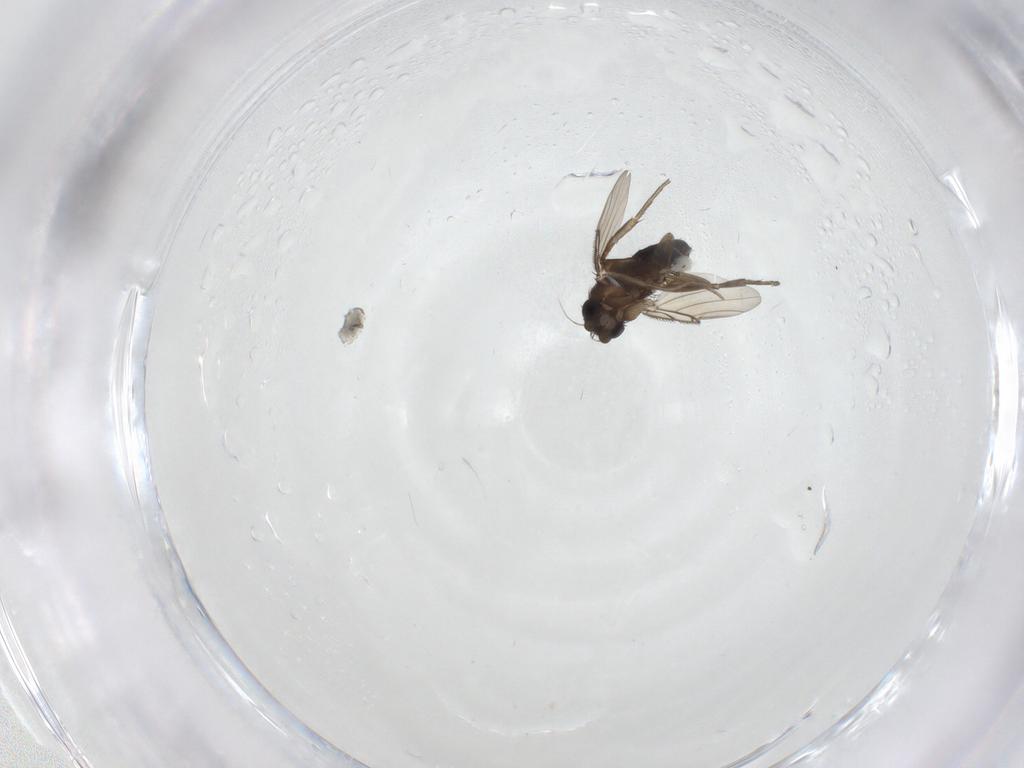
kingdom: Animalia
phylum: Arthropoda
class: Insecta
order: Diptera
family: Phoridae
